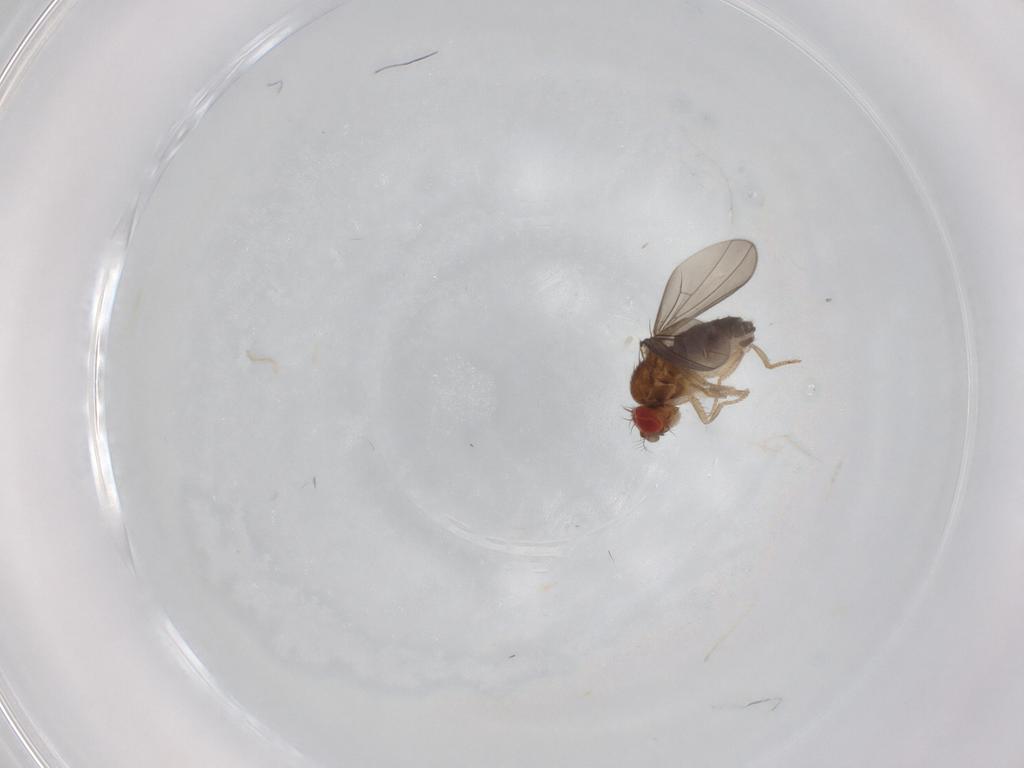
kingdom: Animalia
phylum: Arthropoda
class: Insecta
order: Diptera
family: Drosophilidae
